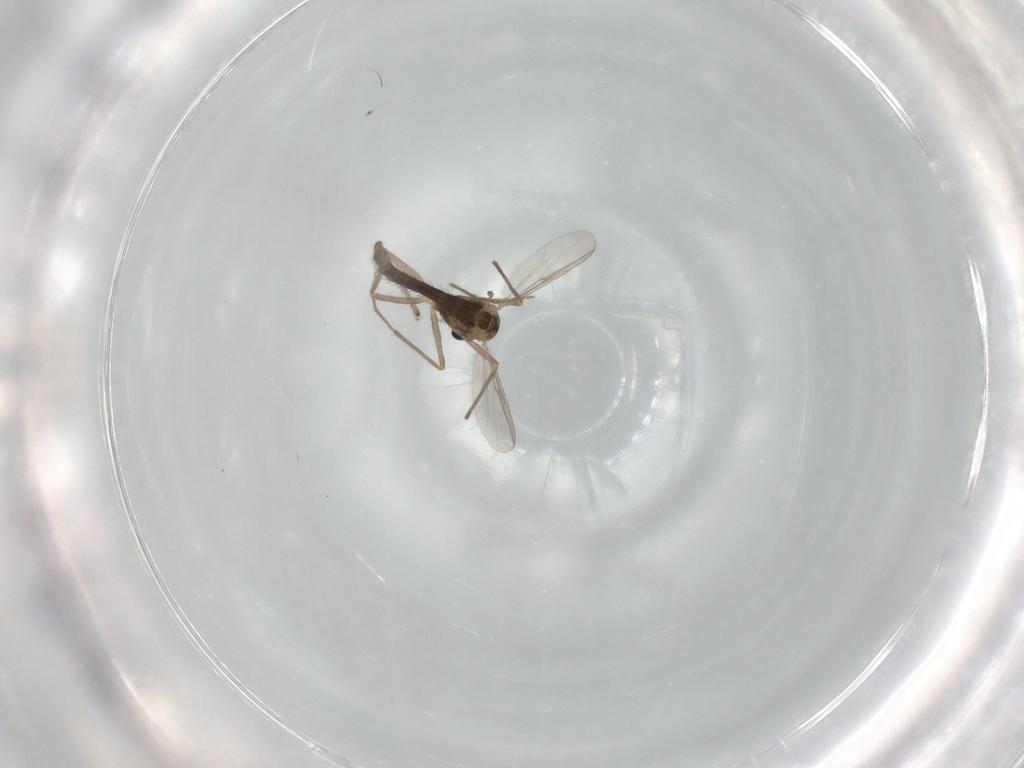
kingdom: Animalia
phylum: Arthropoda
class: Insecta
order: Diptera
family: Chironomidae
